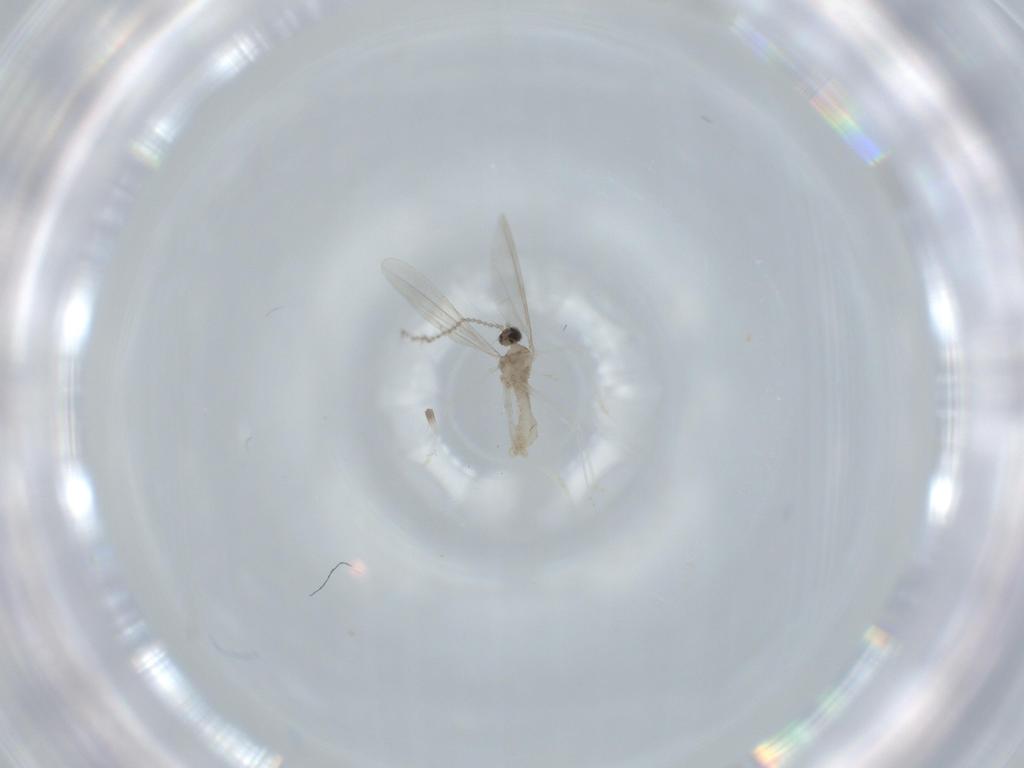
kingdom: Animalia
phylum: Arthropoda
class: Insecta
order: Diptera
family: Cecidomyiidae
